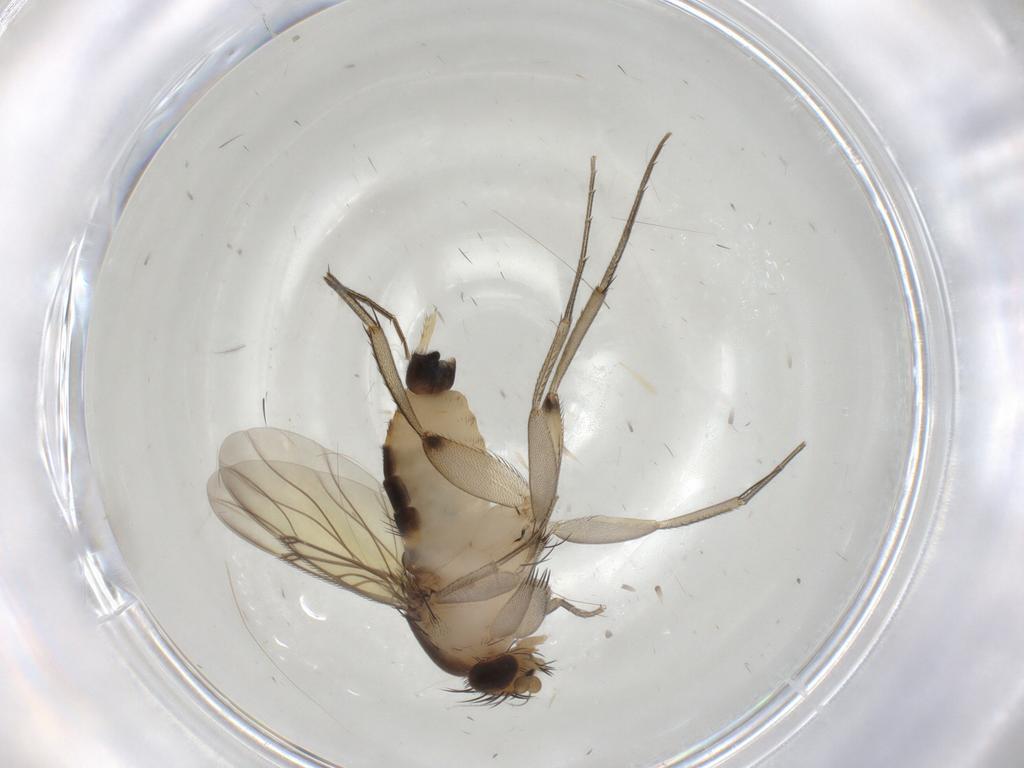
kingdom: Animalia
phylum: Arthropoda
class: Insecta
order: Diptera
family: Phoridae
